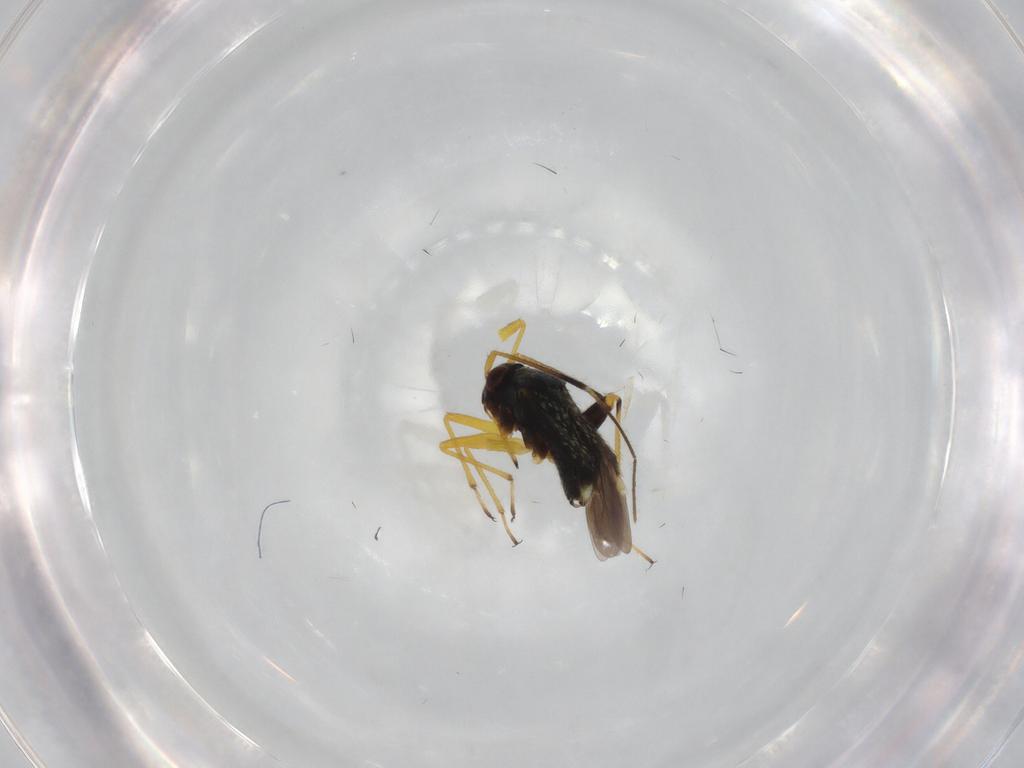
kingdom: Animalia
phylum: Arthropoda
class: Insecta
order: Hemiptera
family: Miridae
